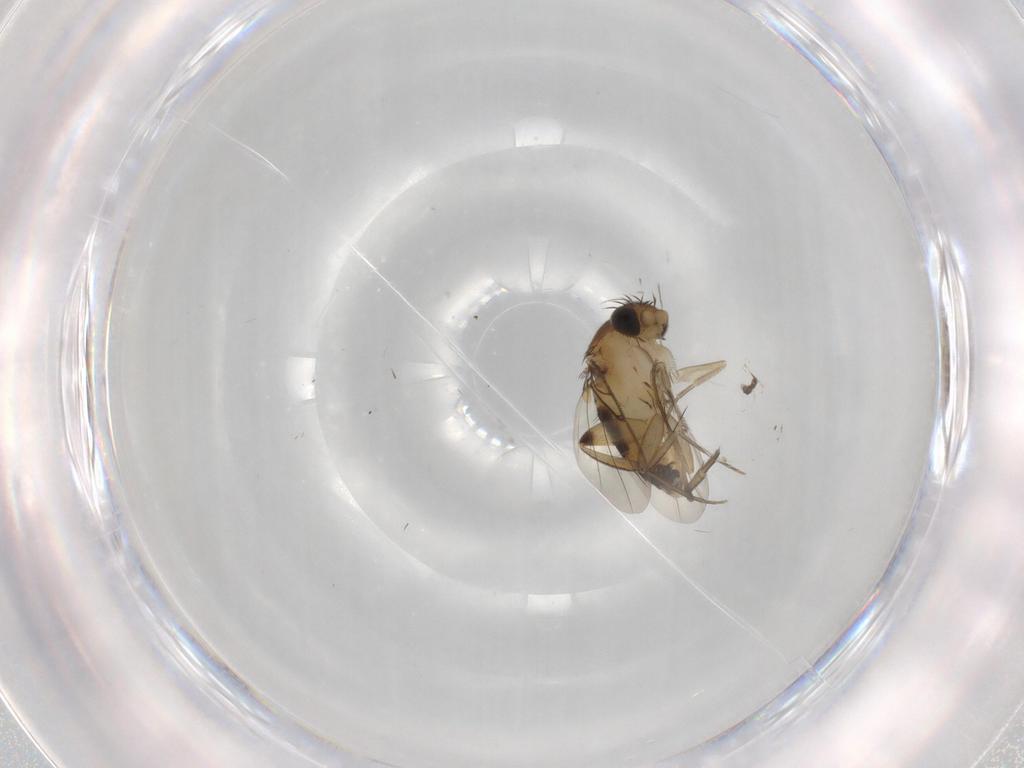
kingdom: Animalia
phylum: Arthropoda
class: Insecta
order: Diptera
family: Phoridae
